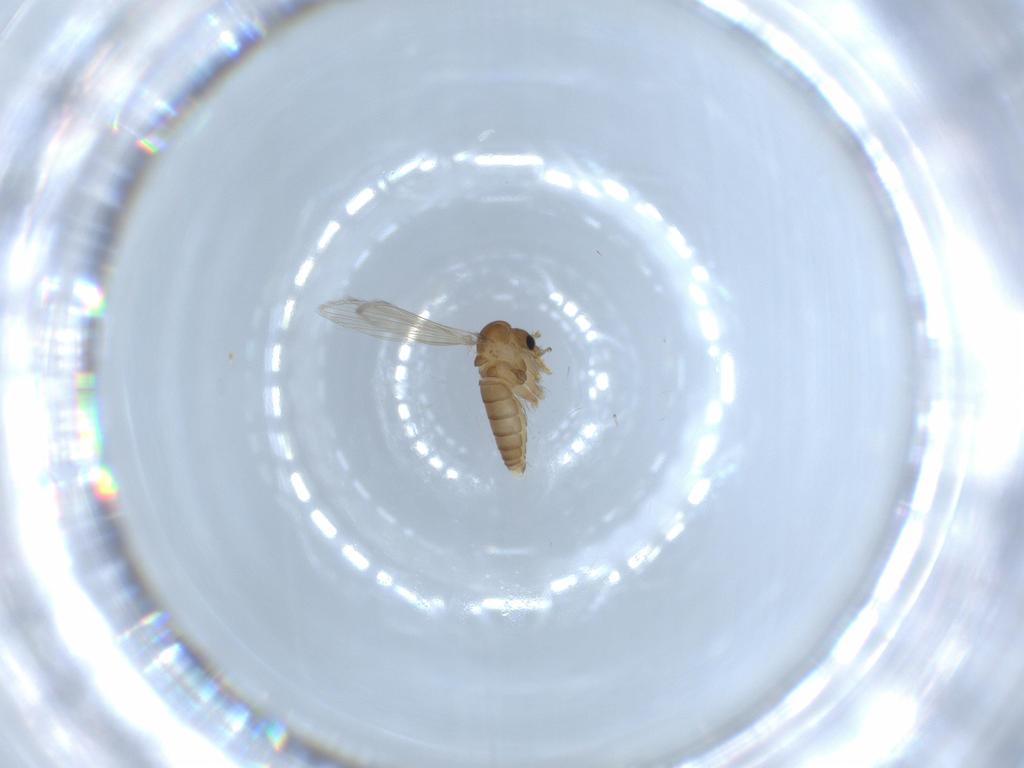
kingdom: Animalia
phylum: Arthropoda
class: Insecta
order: Diptera
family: Psychodidae
